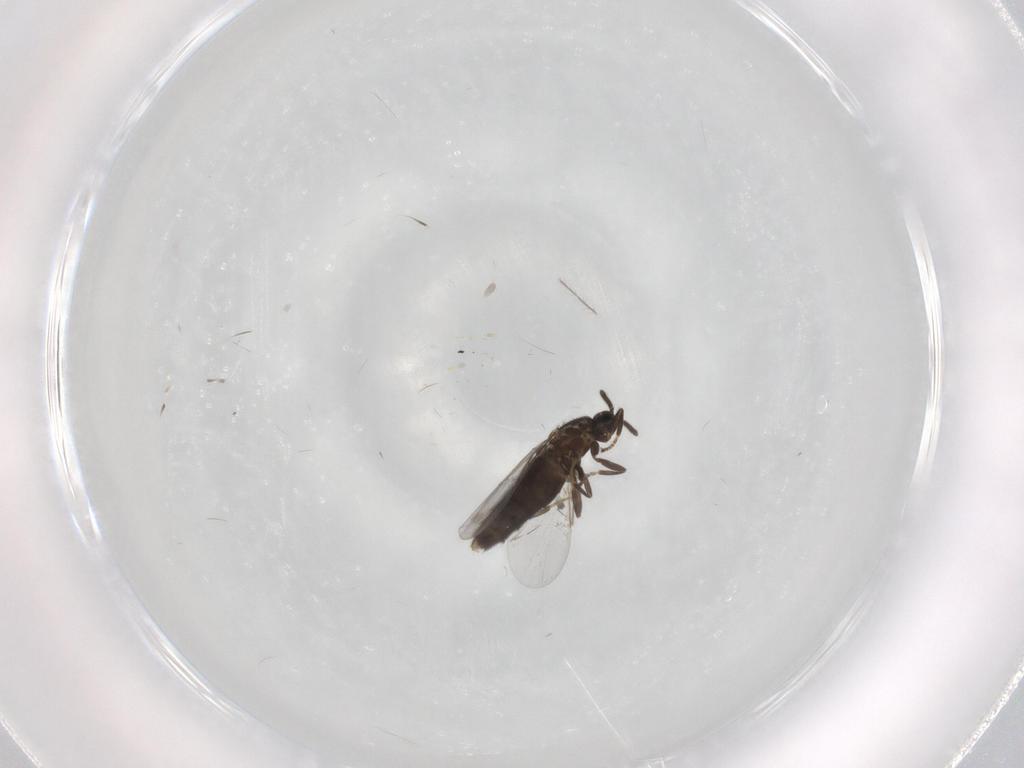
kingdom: Animalia
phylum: Arthropoda
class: Insecta
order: Diptera
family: Scatopsidae
